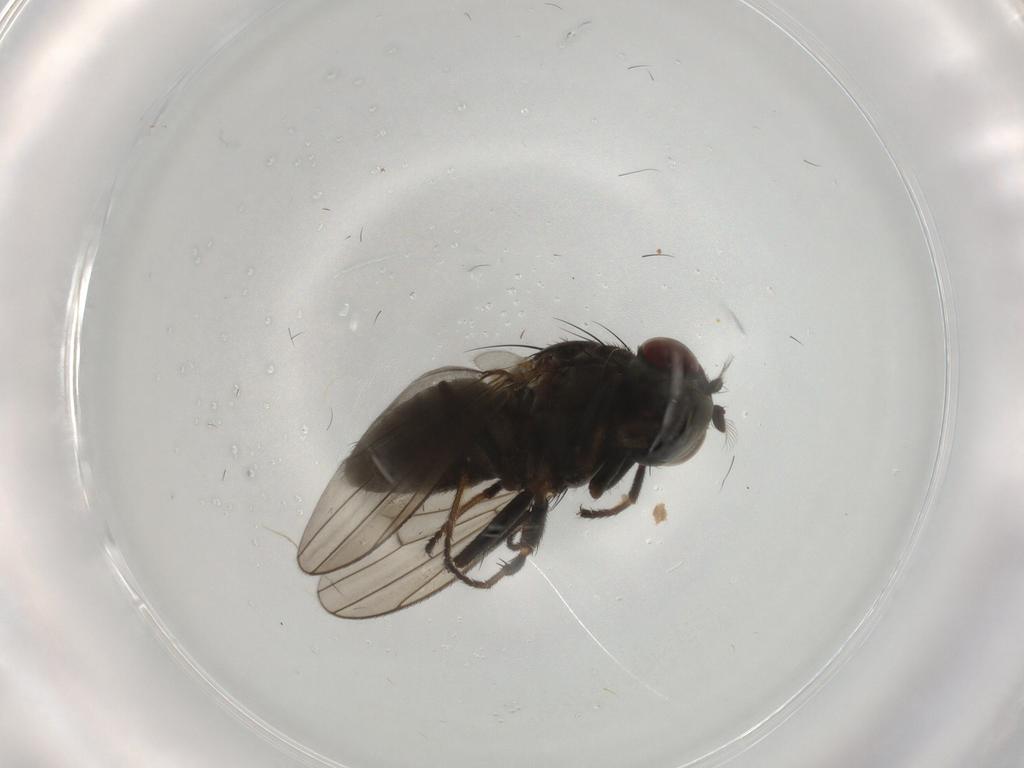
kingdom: Animalia
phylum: Arthropoda
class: Insecta
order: Diptera
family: Ephydridae
